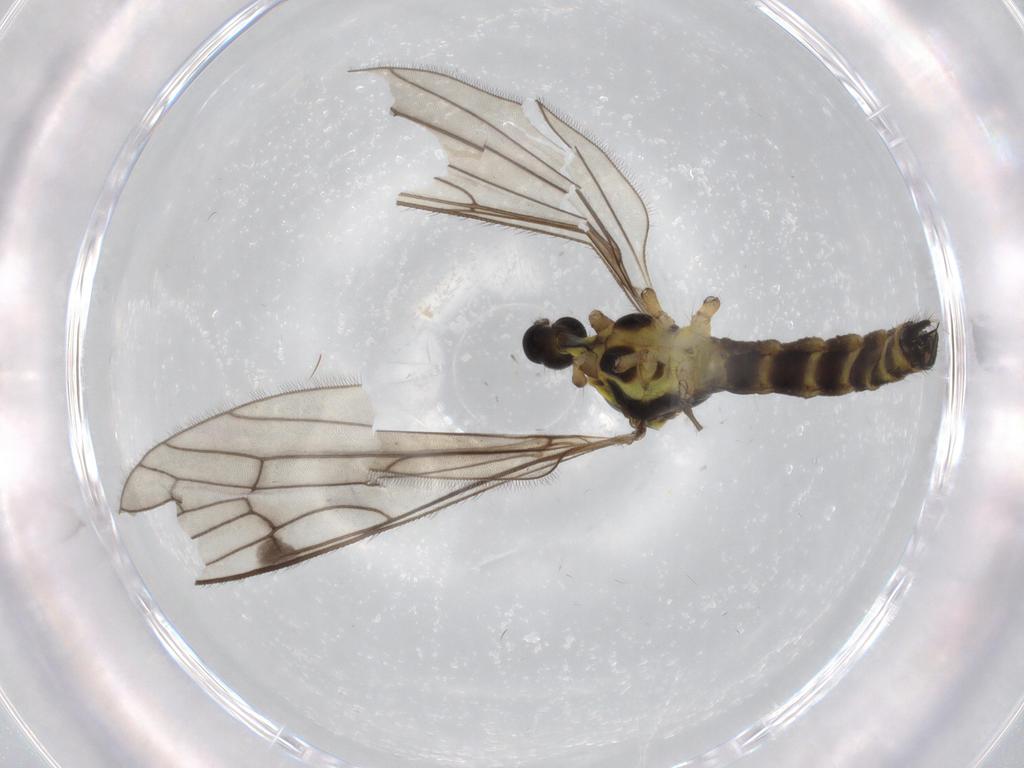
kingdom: Animalia
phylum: Arthropoda
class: Insecta
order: Diptera
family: Limoniidae
